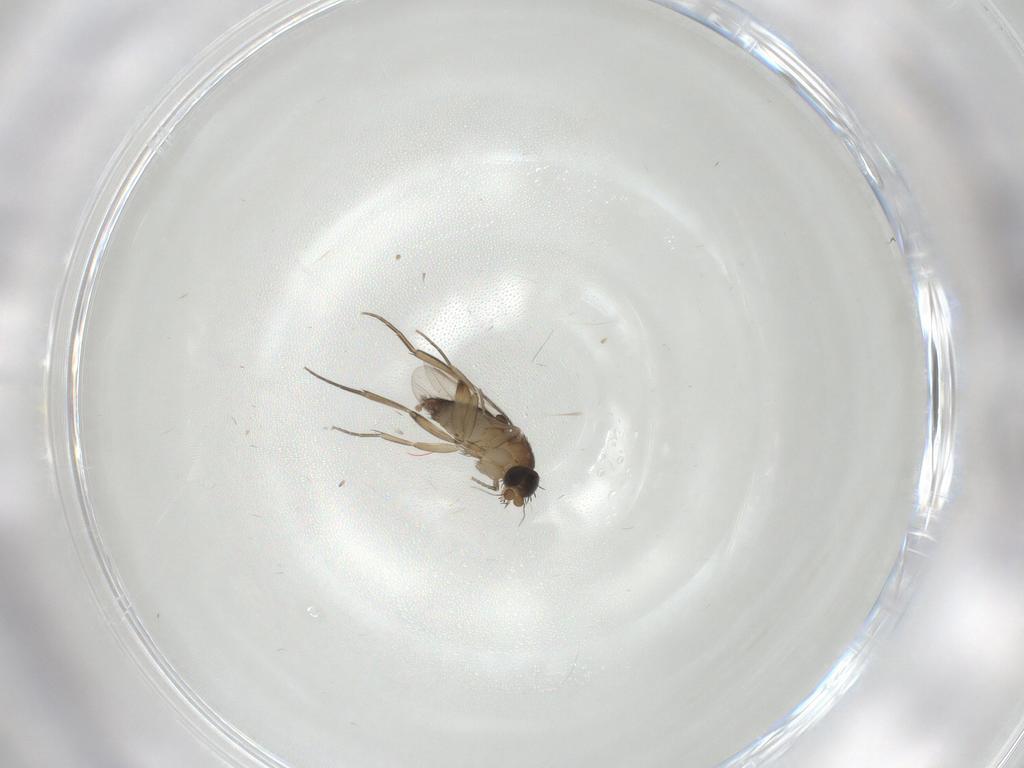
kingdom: Animalia
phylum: Arthropoda
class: Insecta
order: Diptera
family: Phoridae
